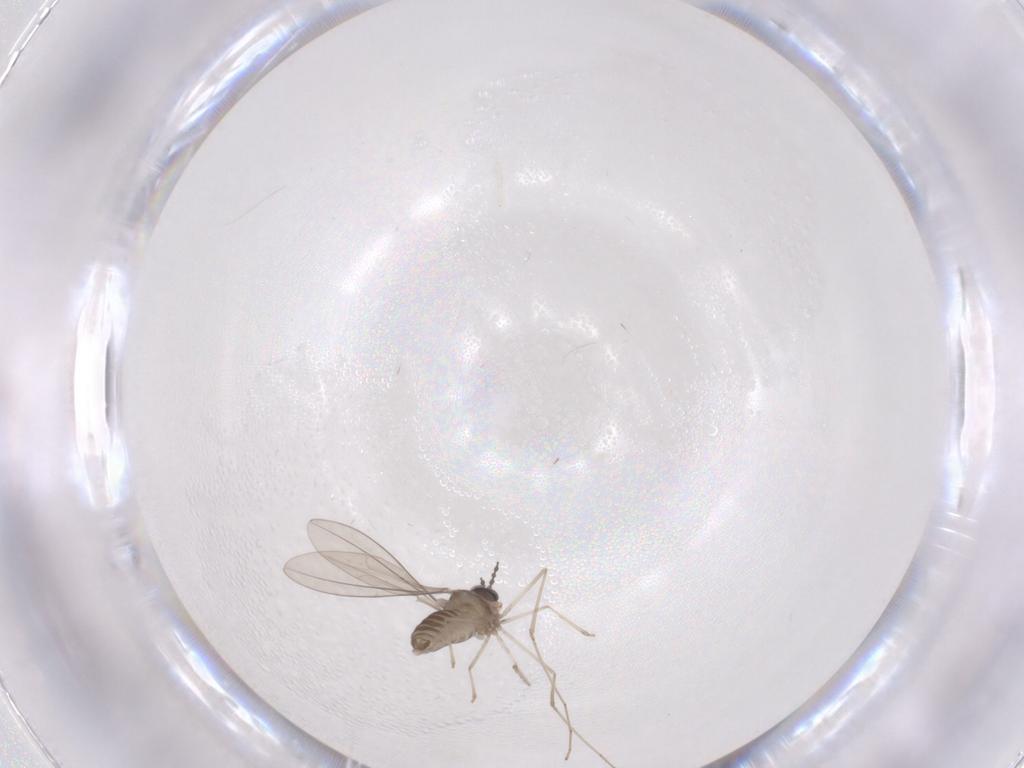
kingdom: Animalia
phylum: Arthropoda
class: Insecta
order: Diptera
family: Cecidomyiidae
